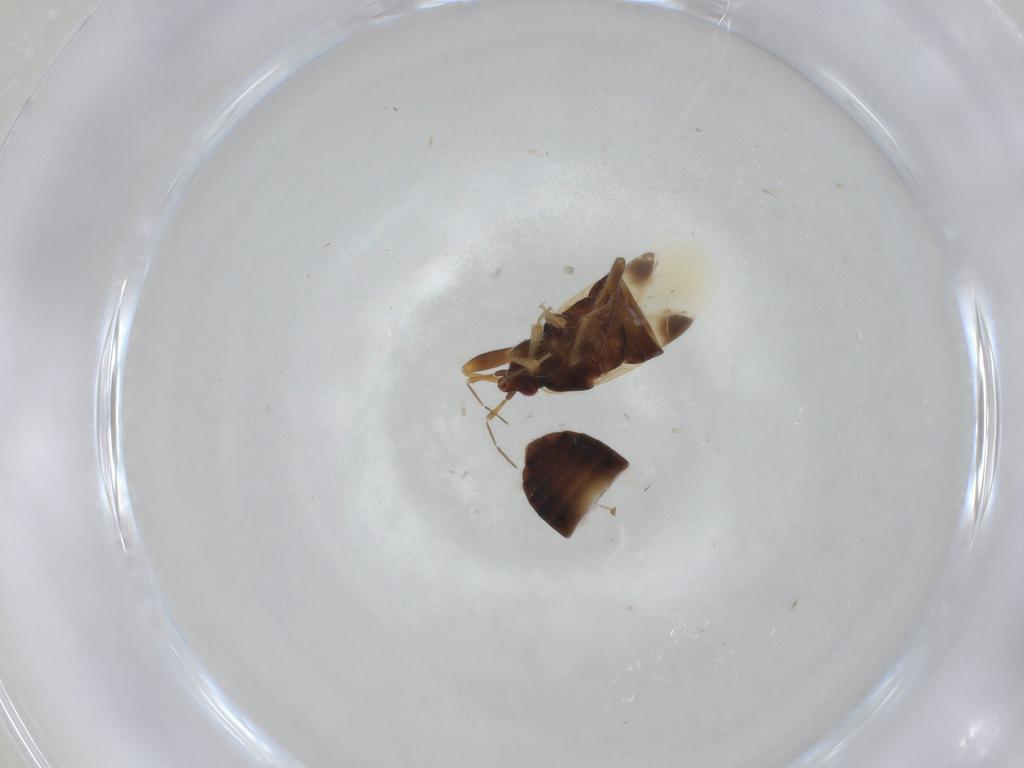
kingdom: Animalia
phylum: Arthropoda
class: Insecta
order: Hemiptera
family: Anthocoridae
